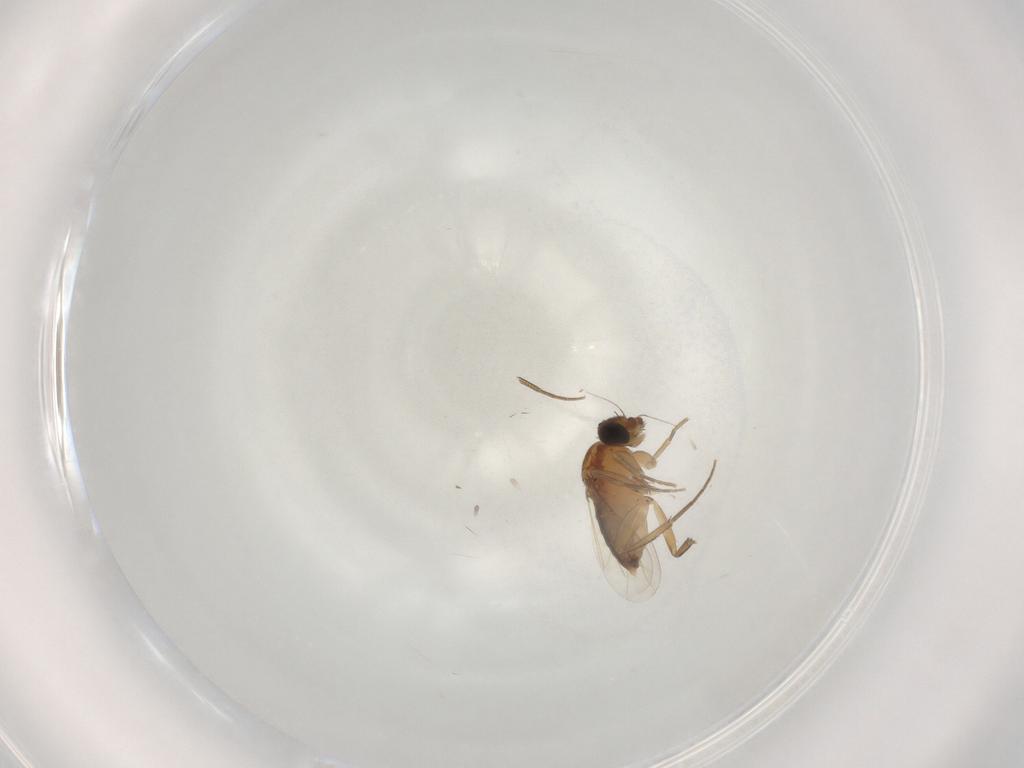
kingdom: Animalia
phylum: Arthropoda
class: Insecta
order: Diptera
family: Phoridae
